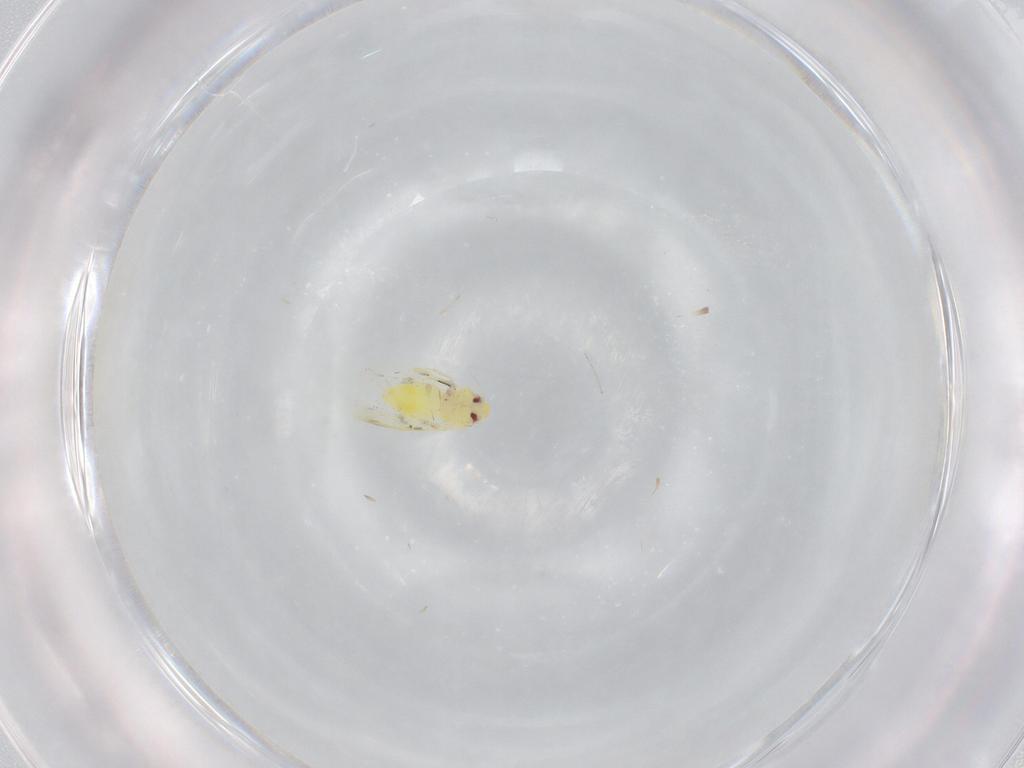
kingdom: Animalia
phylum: Arthropoda
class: Insecta
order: Hemiptera
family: Aleyrodidae
